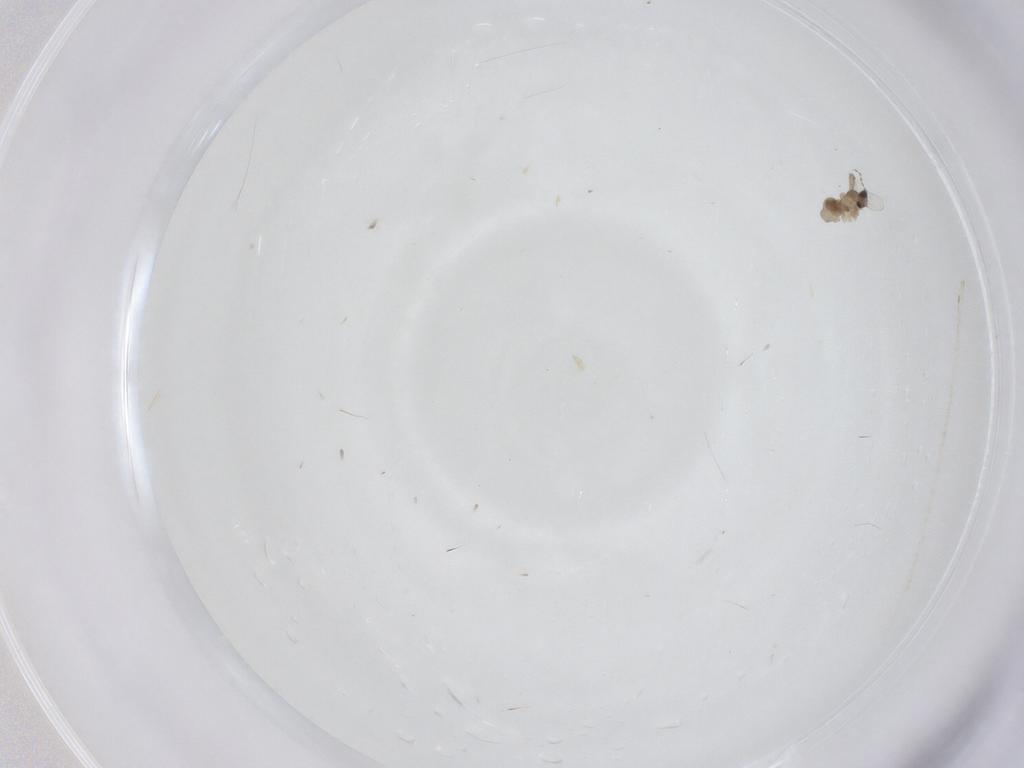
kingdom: Animalia
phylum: Arthropoda
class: Insecta
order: Diptera
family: Cecidomyiidae
